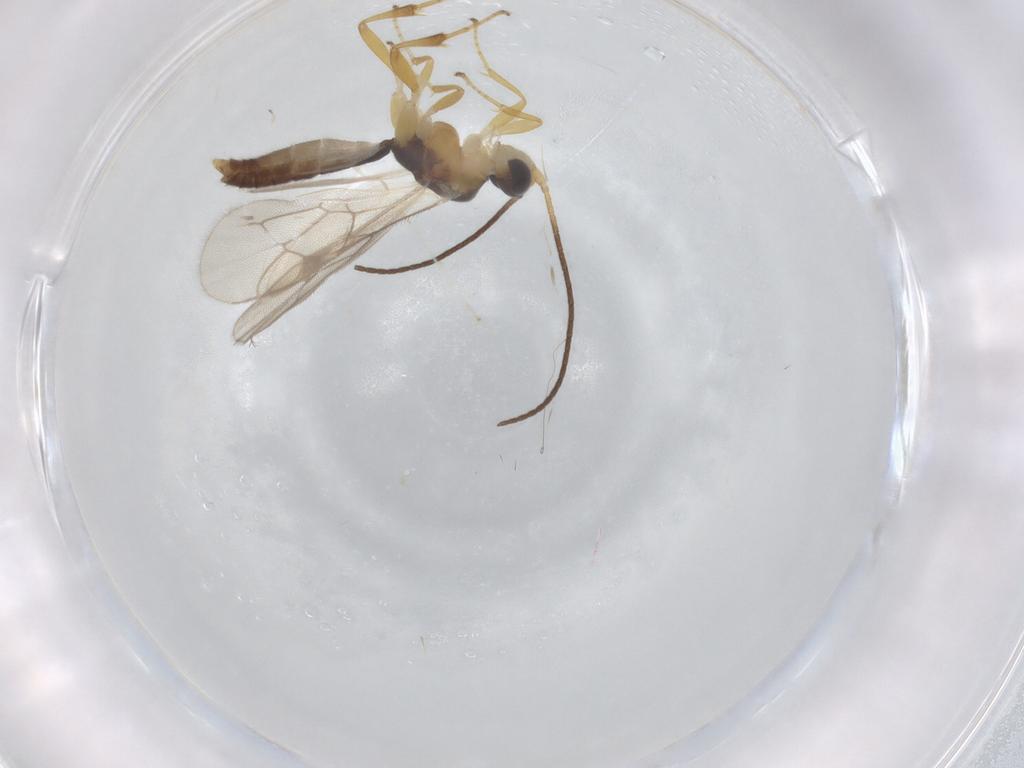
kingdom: Animalia
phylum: Arthropoda
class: Insecta
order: Hymenoptera
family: Ichneumonidae
